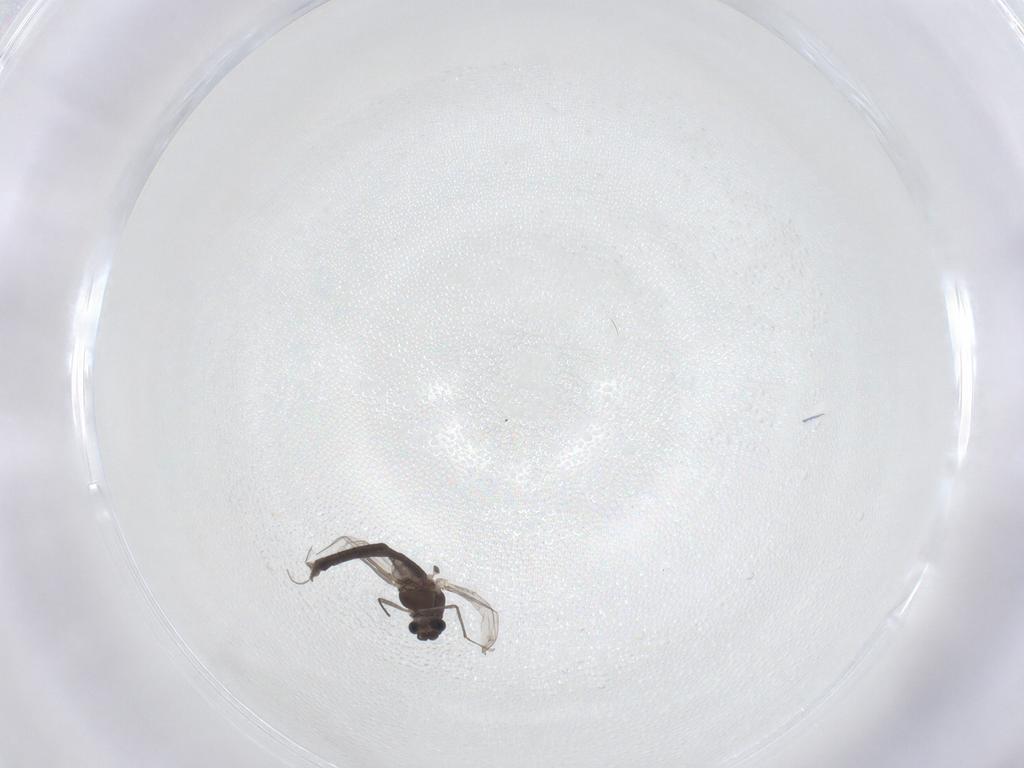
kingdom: Animalia
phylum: Arthropoda
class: Insecta
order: Diptera
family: Chironomidae
